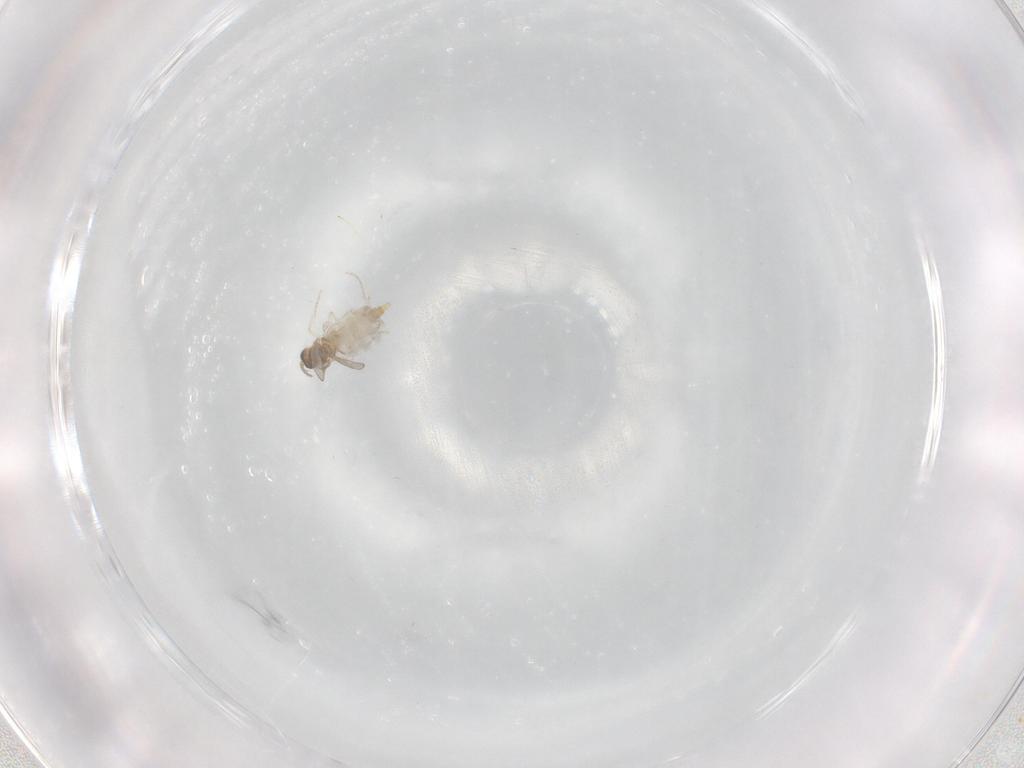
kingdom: Animalia
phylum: Arthropoda
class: Insecta
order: Diptera
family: Cecidomyiidae
